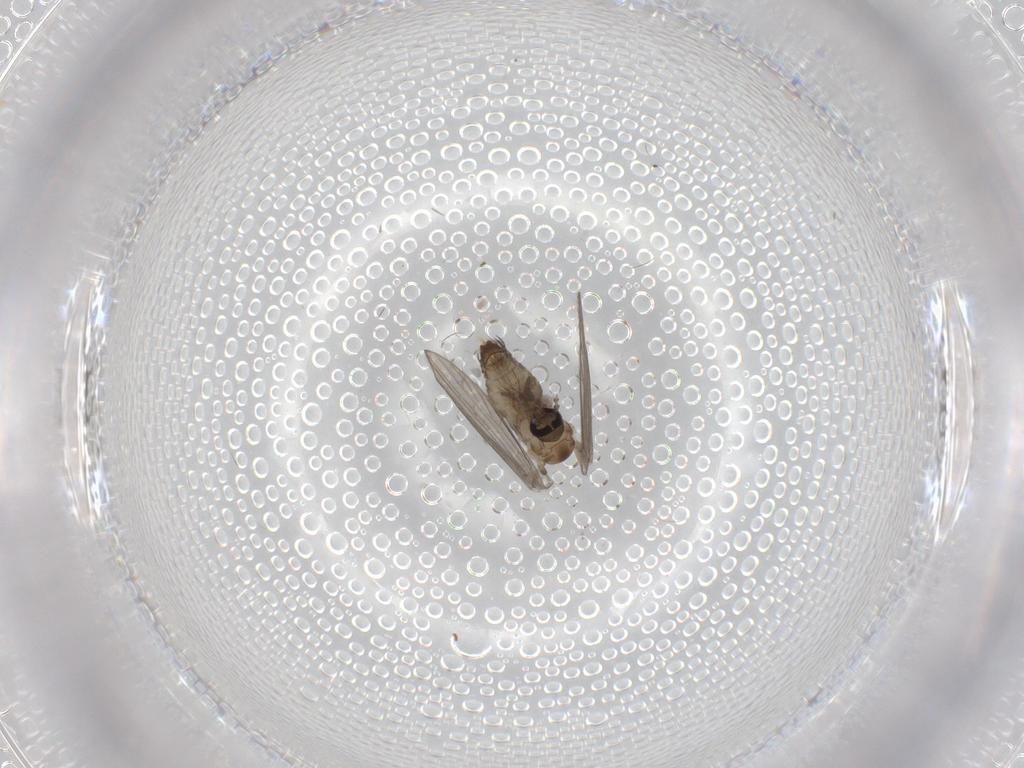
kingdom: Animalia
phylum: Arthropoda
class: Insecta
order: Diptera
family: Psychodidae
